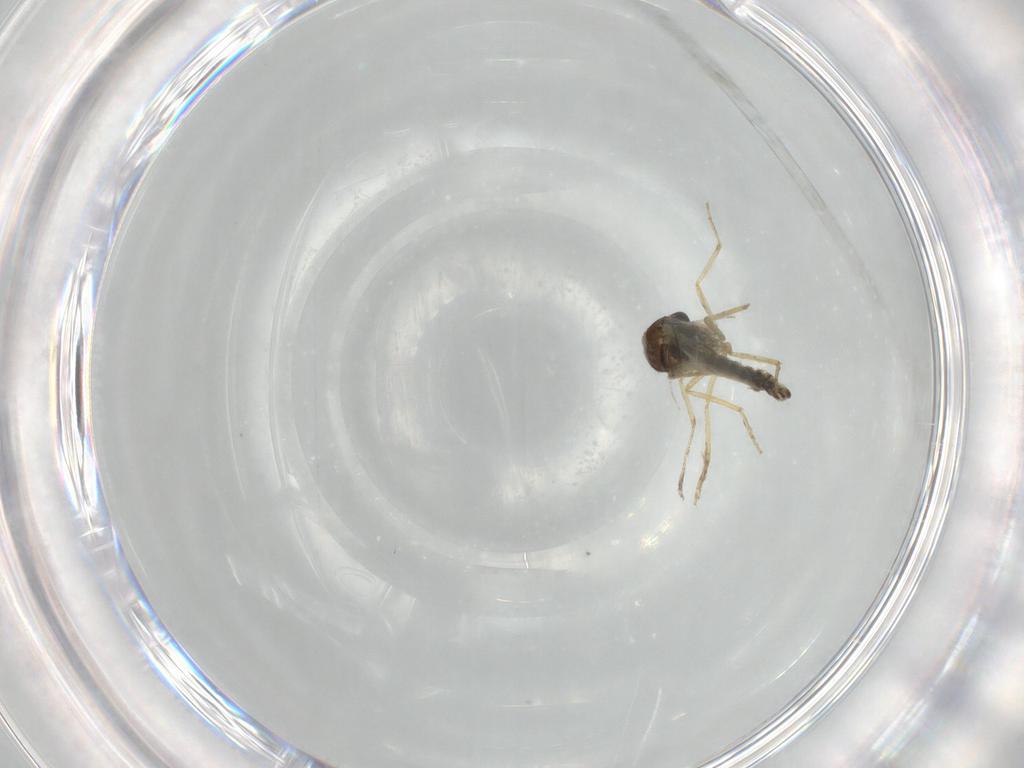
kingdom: Animalia
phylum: Arthropoda
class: Insecta
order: Diptera
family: Ceratopogonidae
